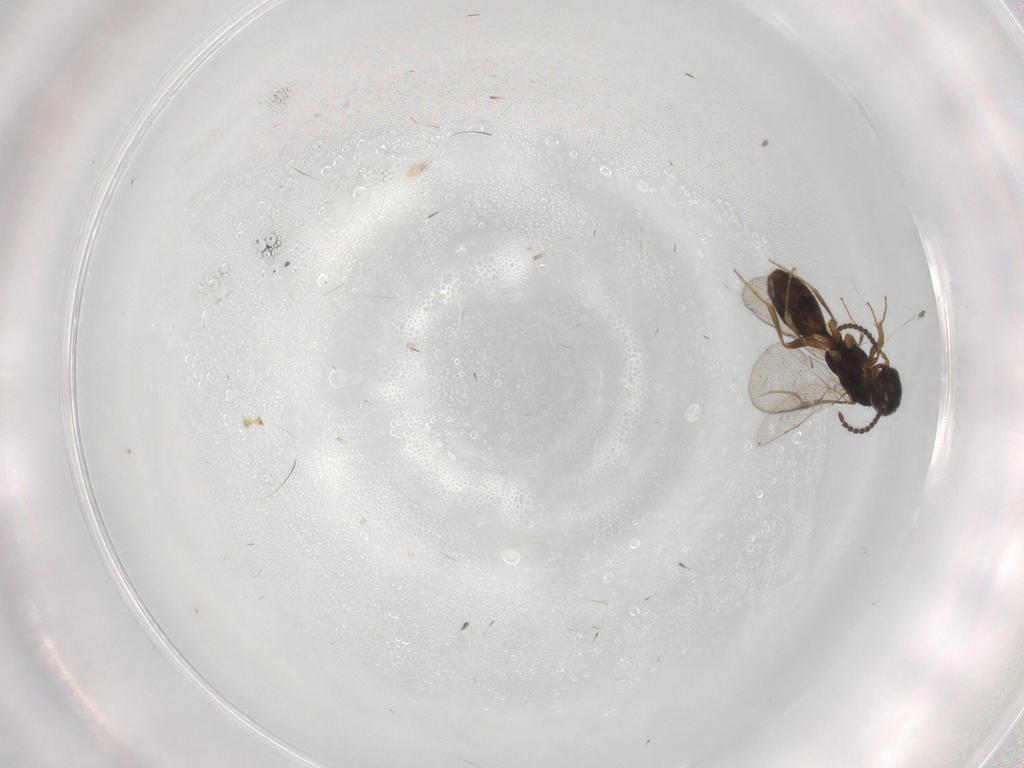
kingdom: Animalia
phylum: Arthropoda
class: Insecta
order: Hymenoptera
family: Bethylidae
